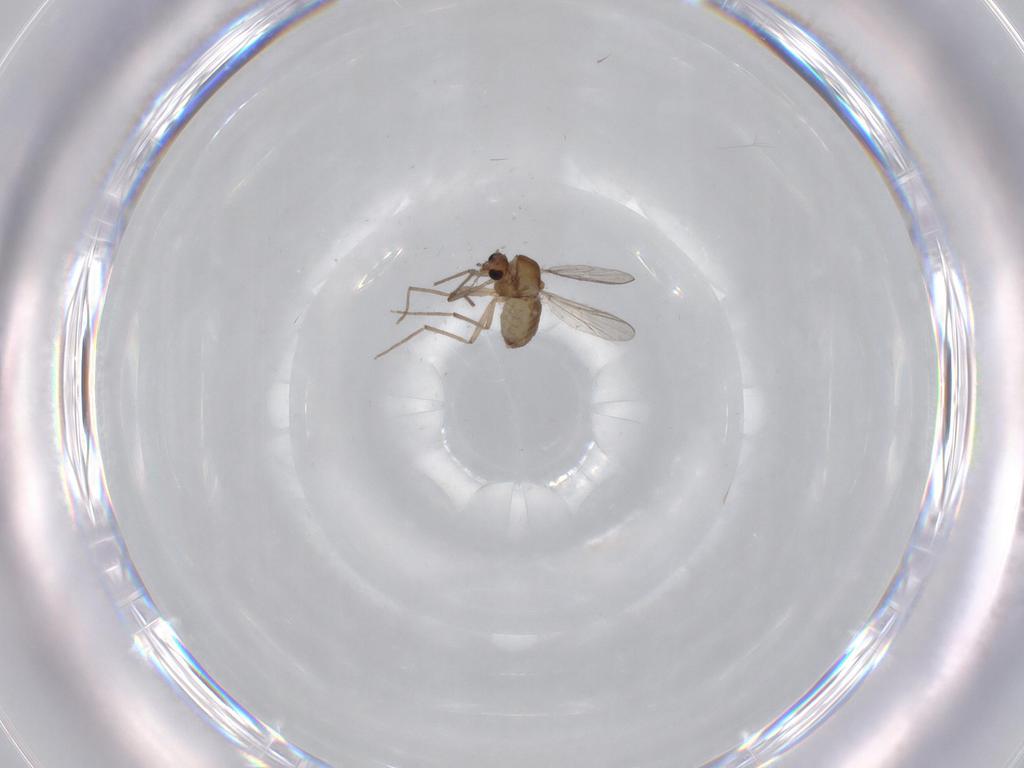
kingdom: Animalia
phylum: Arthropoda
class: Insecta
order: Diptera
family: Chironomidae
